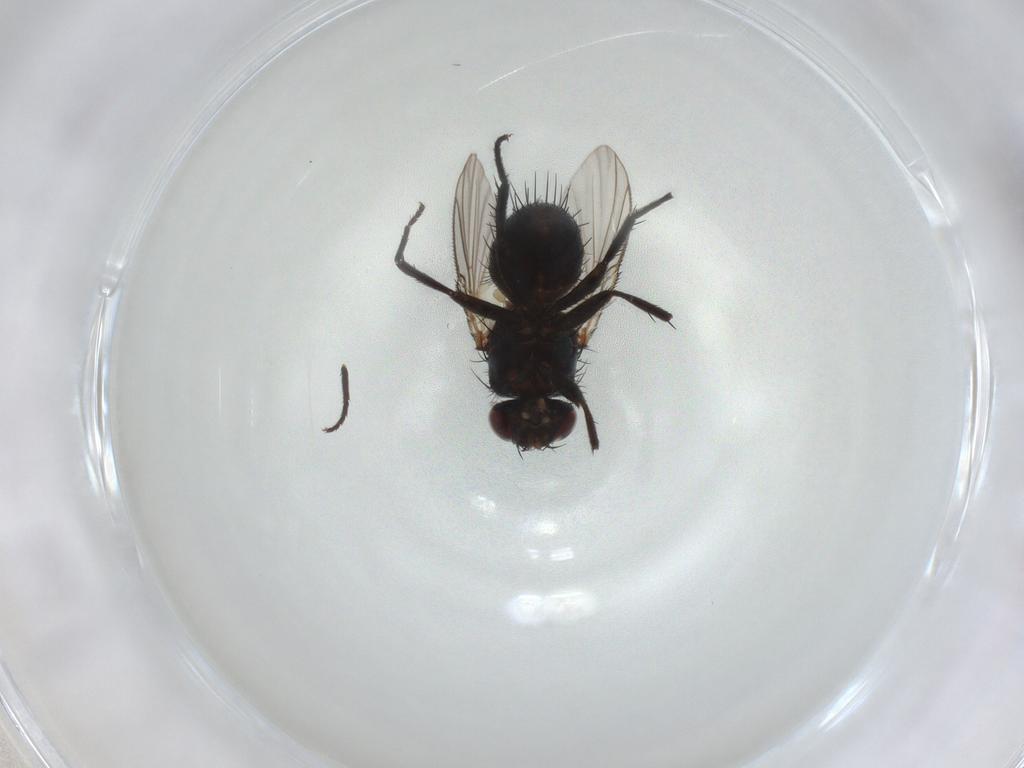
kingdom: Animalia
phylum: Arthropoda
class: Insecta
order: Diptera
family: Tachinidae
